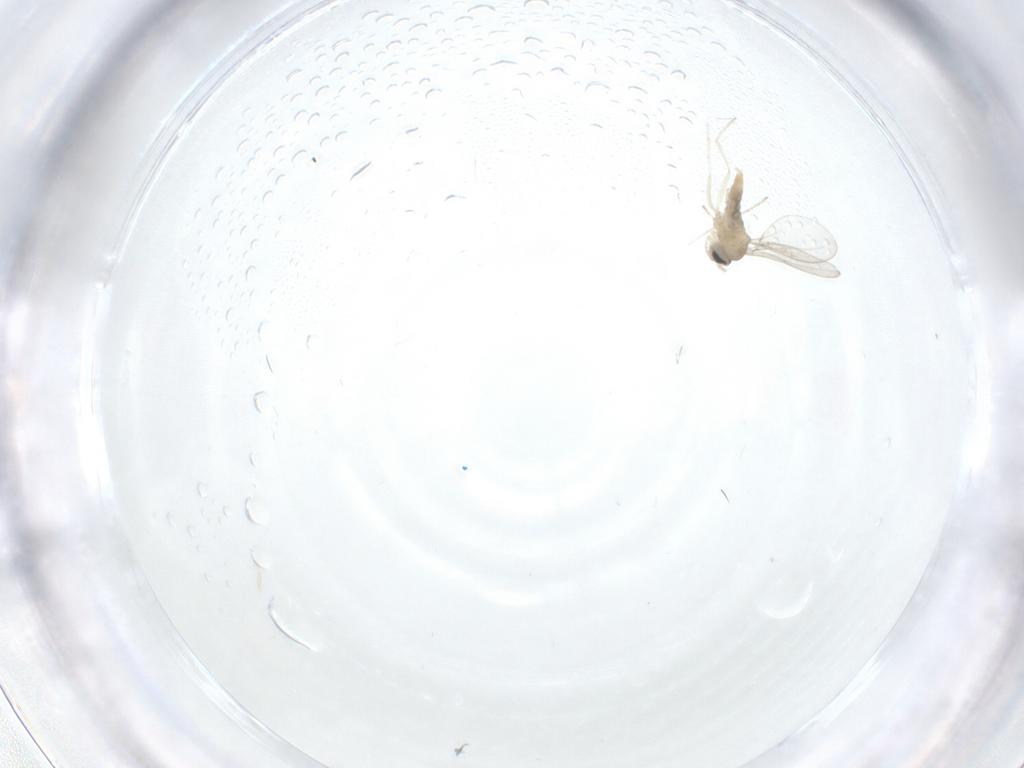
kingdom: Animalia
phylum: Arthropoda
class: Insecta
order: Diptera
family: Cecidomyiidae
